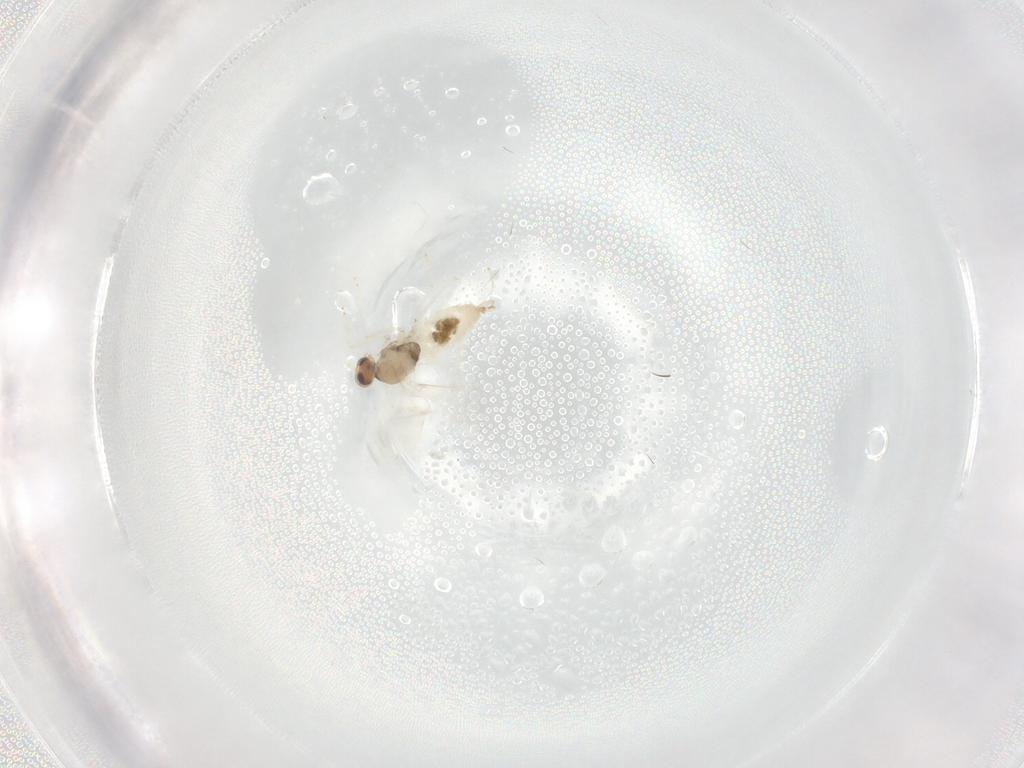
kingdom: Animalia
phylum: Arthropoda
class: Insecta
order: Diptera
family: Cecidomyiidae
